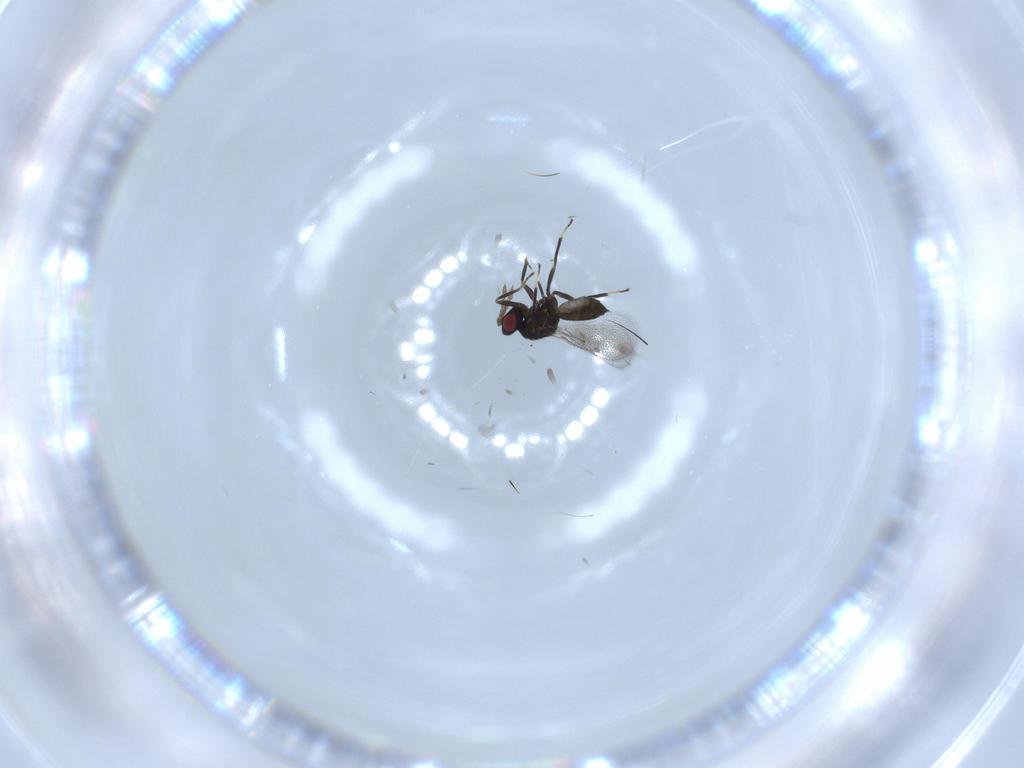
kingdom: Animalia
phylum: Arthropoda
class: Insecta
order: Hymenoptera
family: Eulophidae
